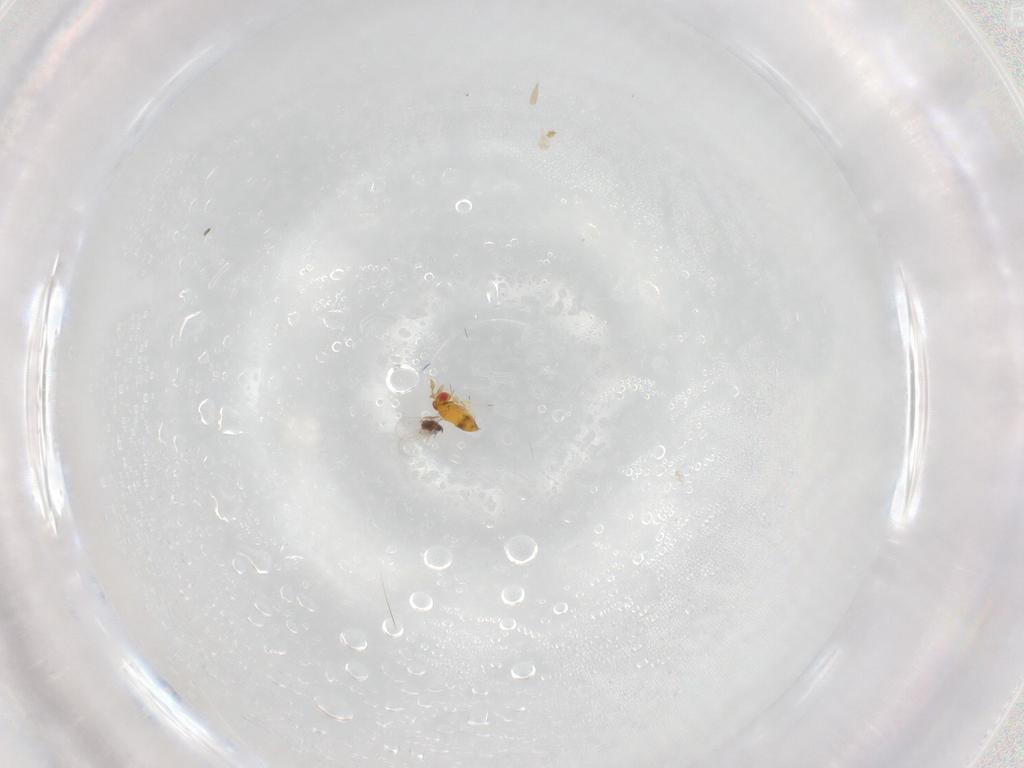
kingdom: Animalia
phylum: Arthropoda
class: Insecta
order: Hymenoptera
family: Trichogrammatidae
